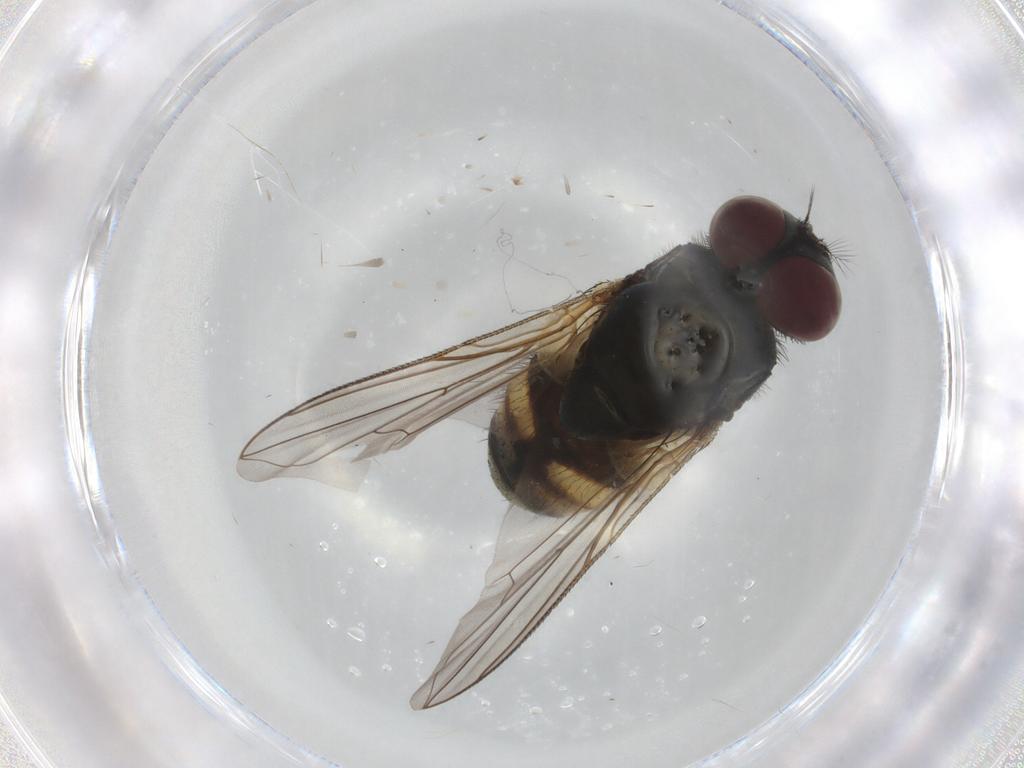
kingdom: Animalia
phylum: Arthropoda
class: Insecta
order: Diptera
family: Muscidae
